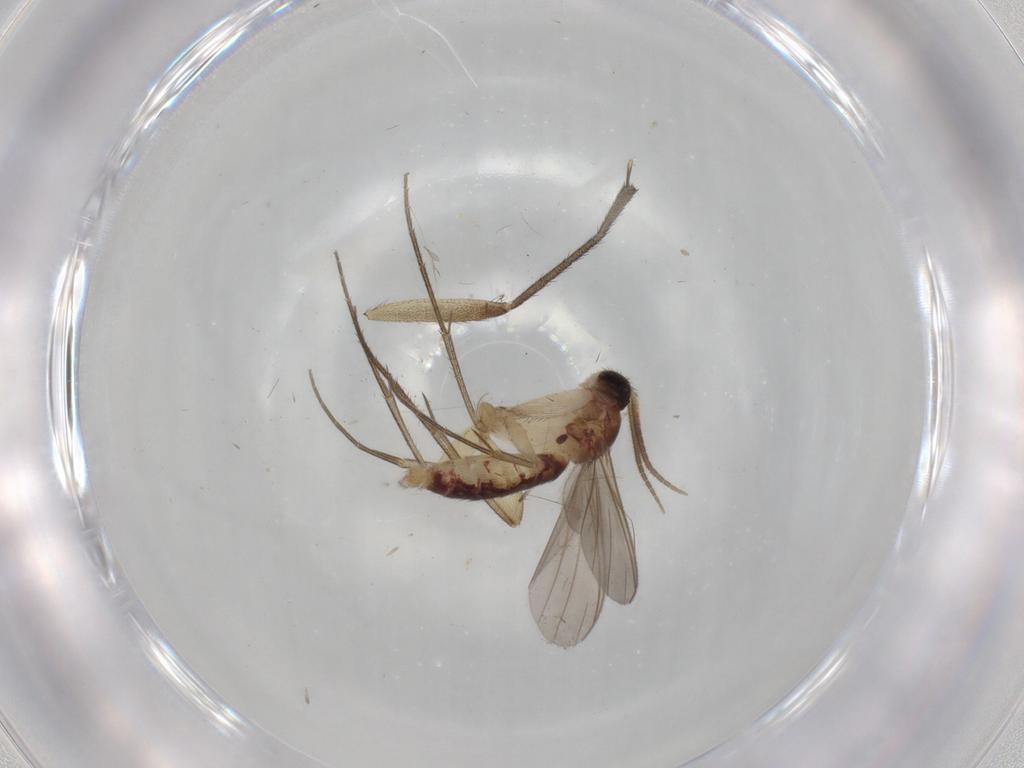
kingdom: Animalia
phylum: Arthropoda
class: Insecta
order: Diptera
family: Mycetophilidae
